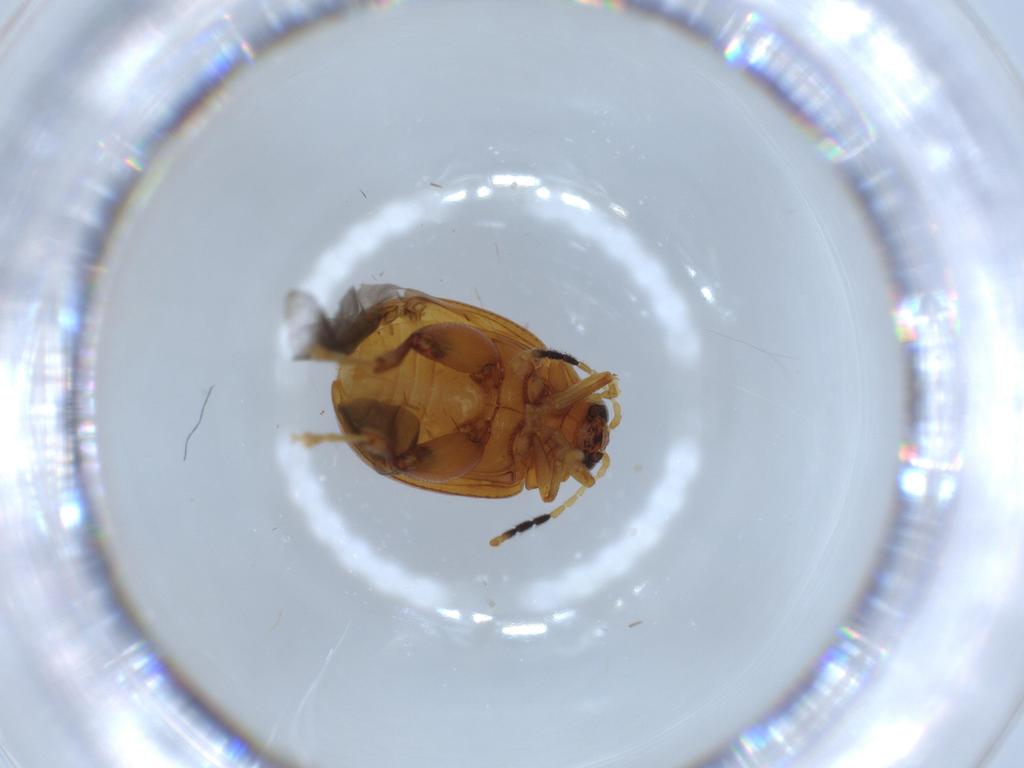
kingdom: Animalia
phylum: Arthropoda
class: Insecta
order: Coleoptera
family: Chrysomelidae
